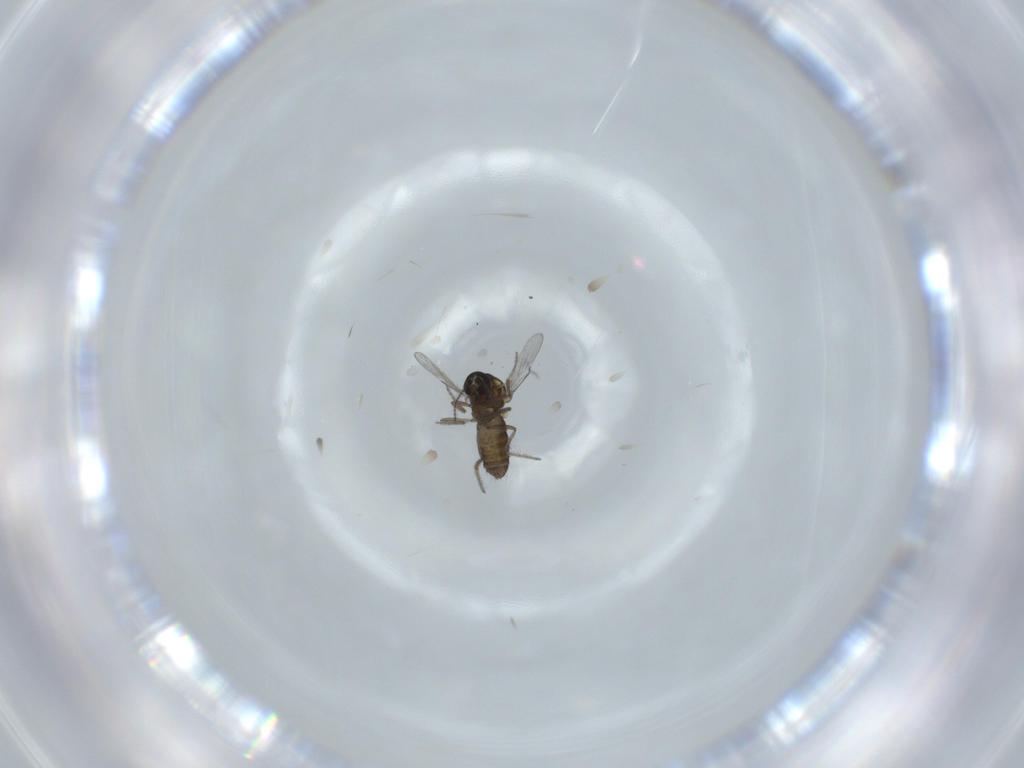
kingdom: Animalia
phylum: Arthropoda
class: Insecta
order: Diptera
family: Ceratopogonidae
